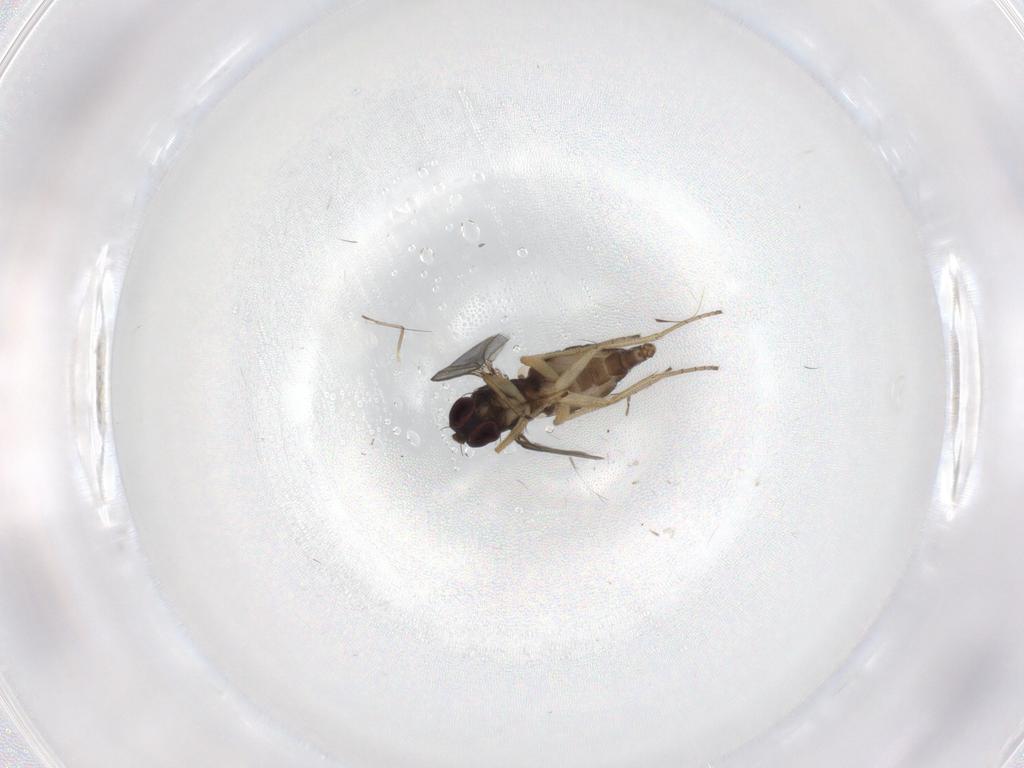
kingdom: Animalia
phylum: Arthropoda
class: Insecta
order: Diptera
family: Dolichopodidae
